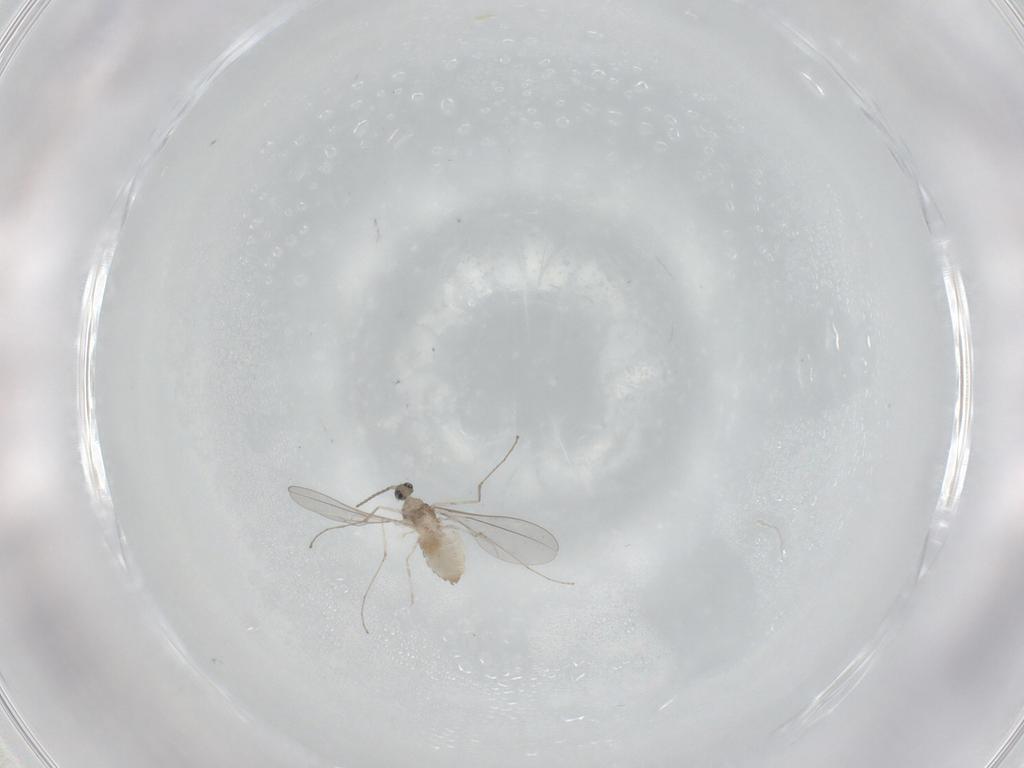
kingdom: Animalia
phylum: Arthropoda
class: Insecta
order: Diptera
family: Cecidomyiidae
